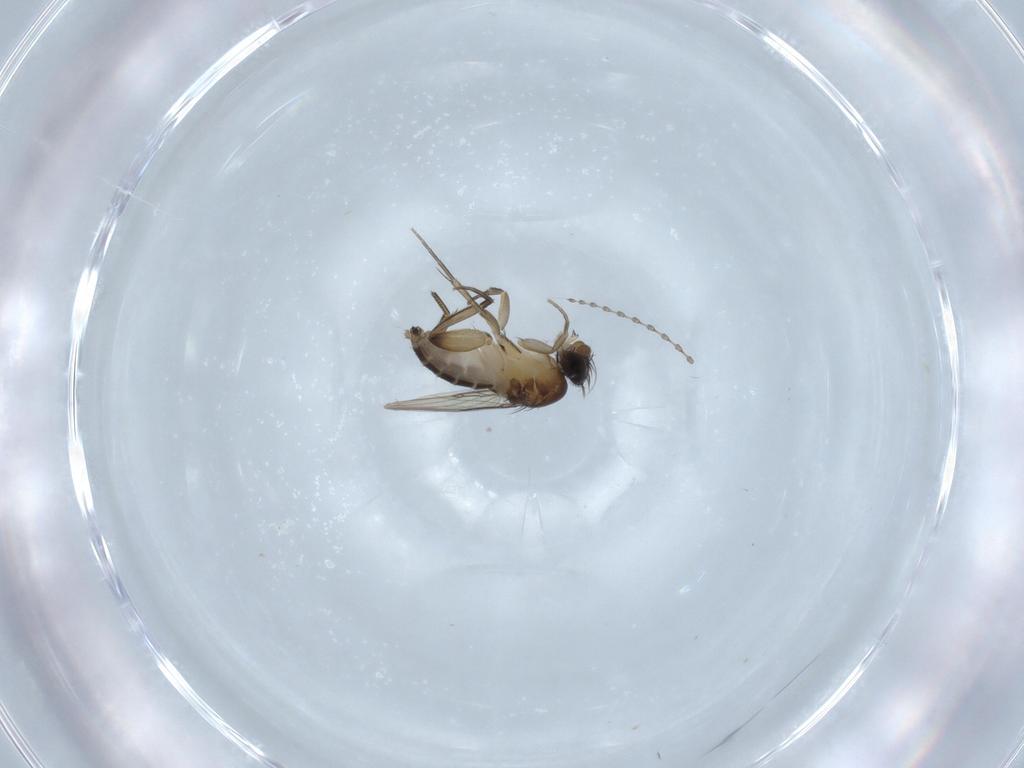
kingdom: Animalia
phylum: Arthropoda
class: Insecta
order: Diptera
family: Phoridae
